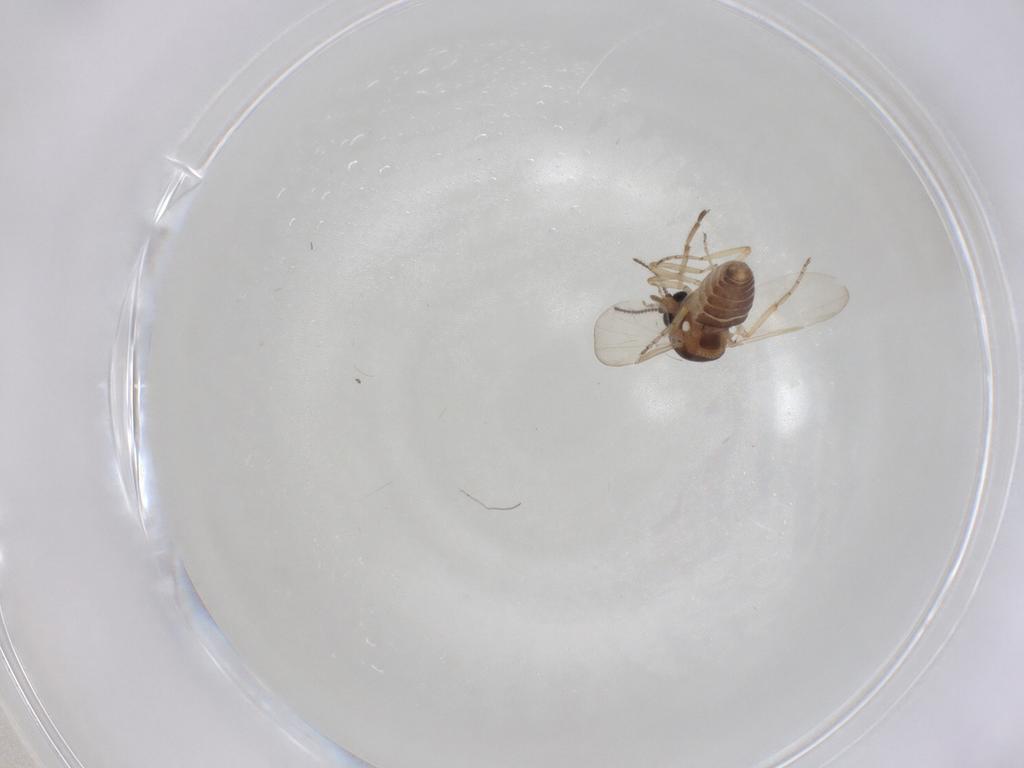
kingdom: Animalia
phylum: Arthropoda
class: Insecta
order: Diptera
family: Ceratopogonidae
